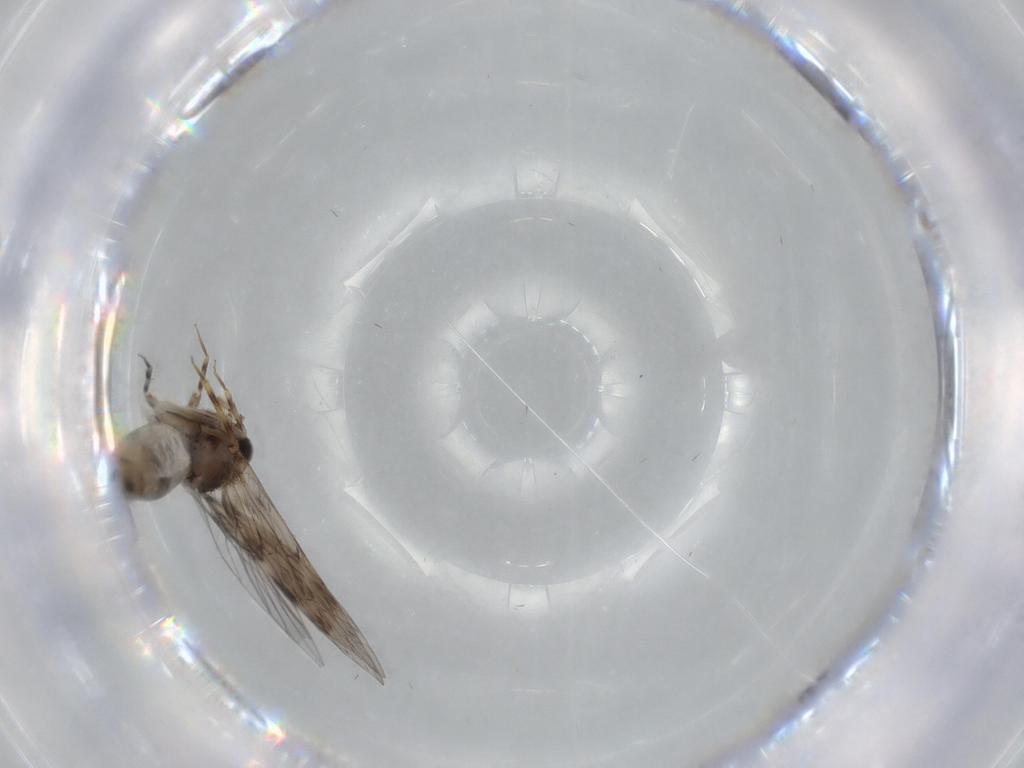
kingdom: Animalia
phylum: Arthropoda
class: Insecta
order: Psocodea
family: Lepidopsocidae
